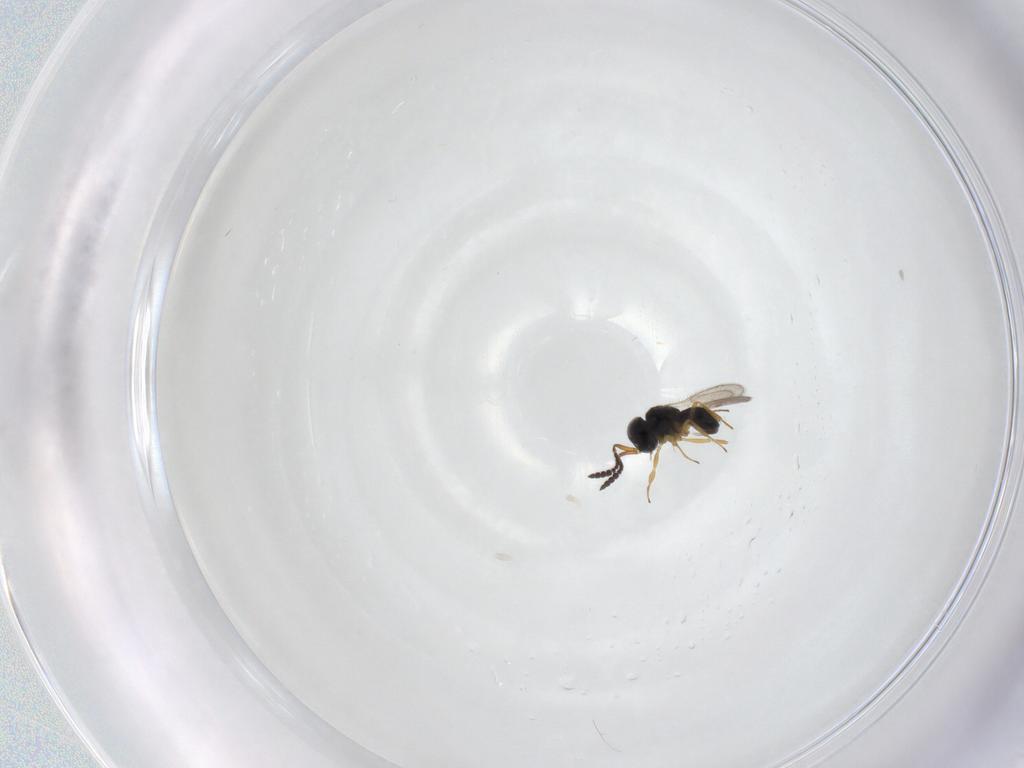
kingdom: Animalia
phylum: Arthropoda
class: Insecta
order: Hymenoptera
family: Scelionidae
